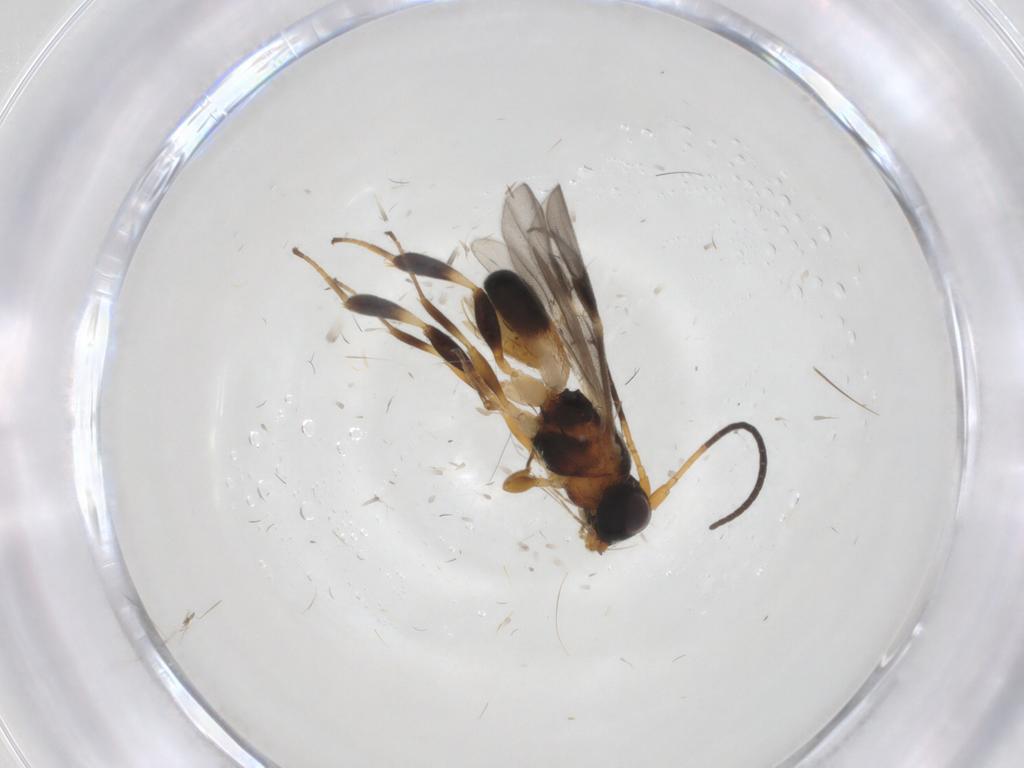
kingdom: Animalia
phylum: Arthropoda
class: Insecta
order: Hymenoptera
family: Braconidae
